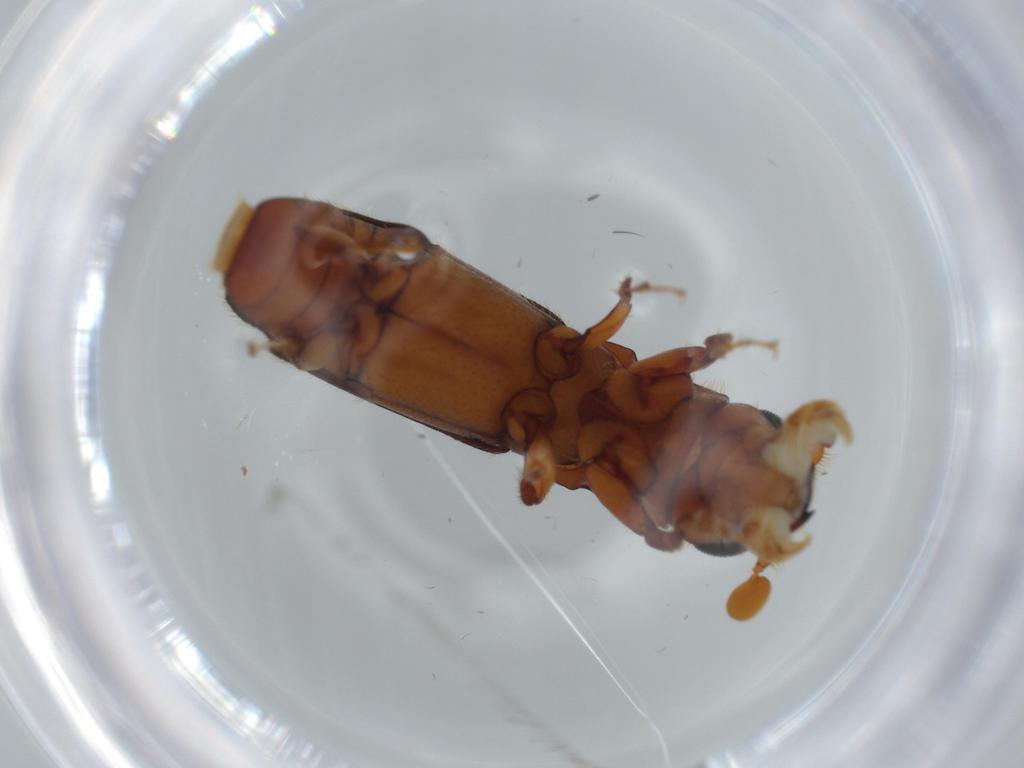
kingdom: Animalia
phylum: Arthropoda
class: Insecta
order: Coleoptera
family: Curculionidae
